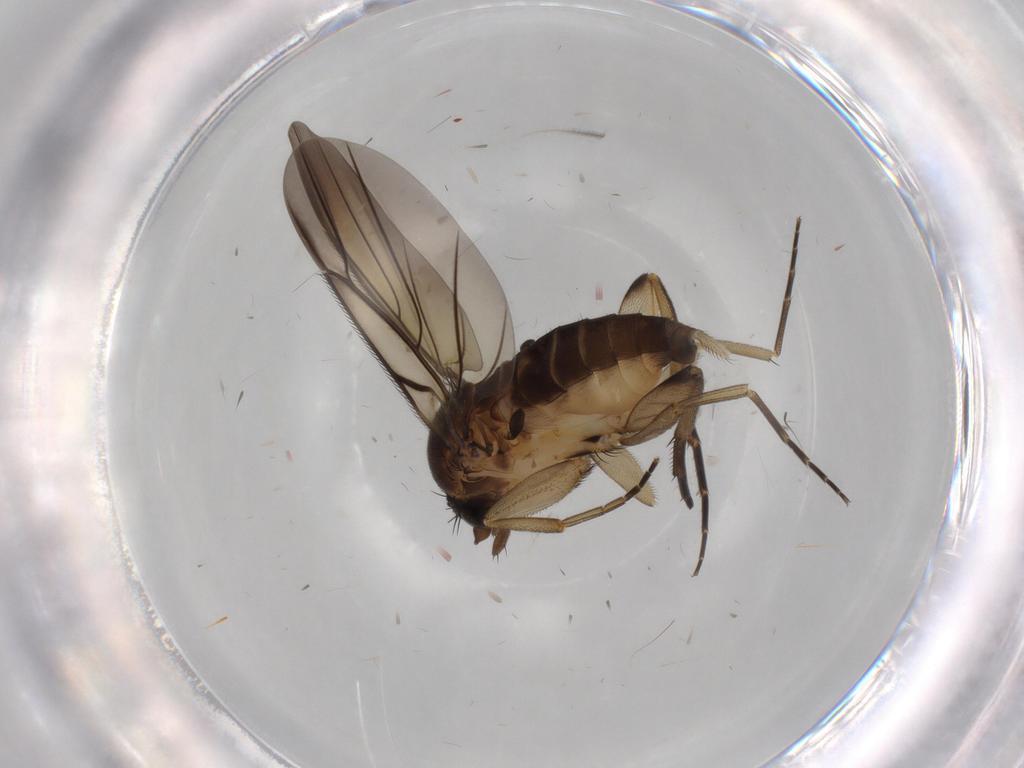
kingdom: Animalia
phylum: Arthropoda
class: Insecta
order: Diptera
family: Phoridae
